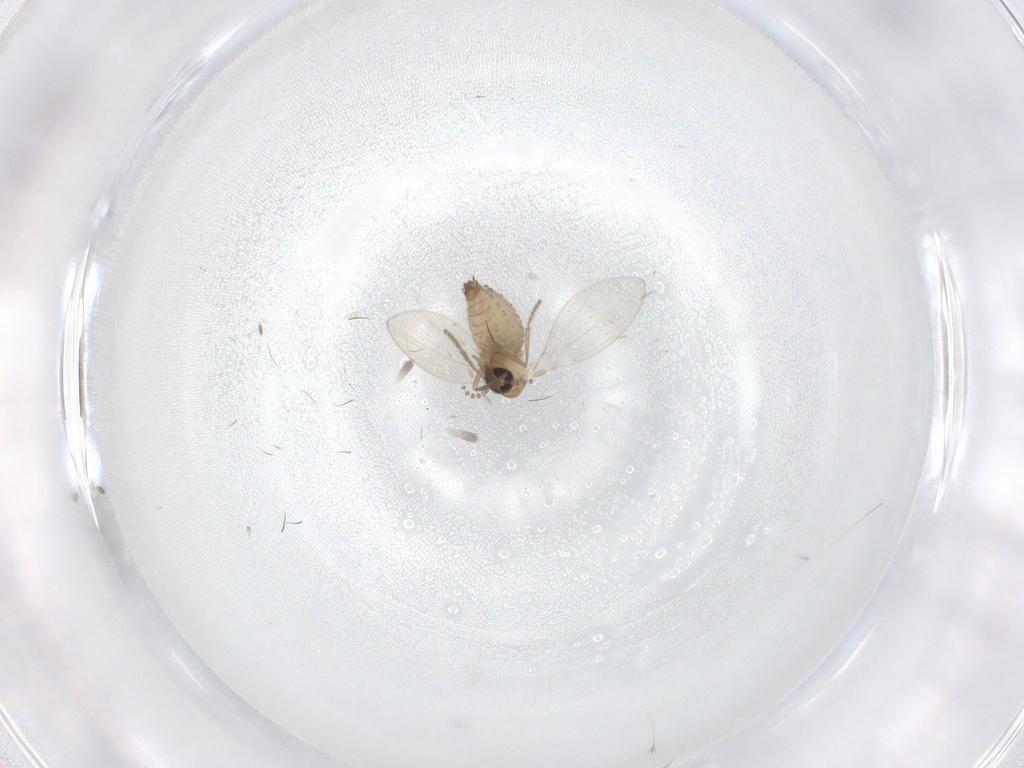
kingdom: Animalia
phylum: Arthropoda
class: Insecta
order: Diptera
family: Psychodidae
